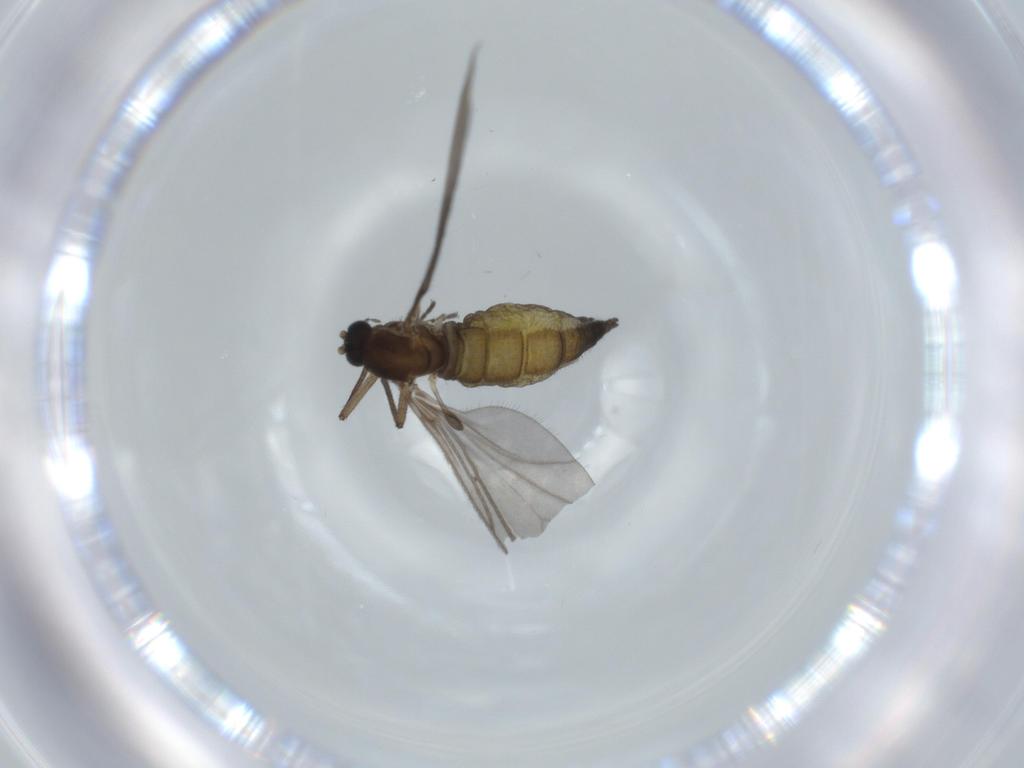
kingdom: Animalia
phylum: Arthropoda
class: Insecta
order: Diptera
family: Sciaridae
